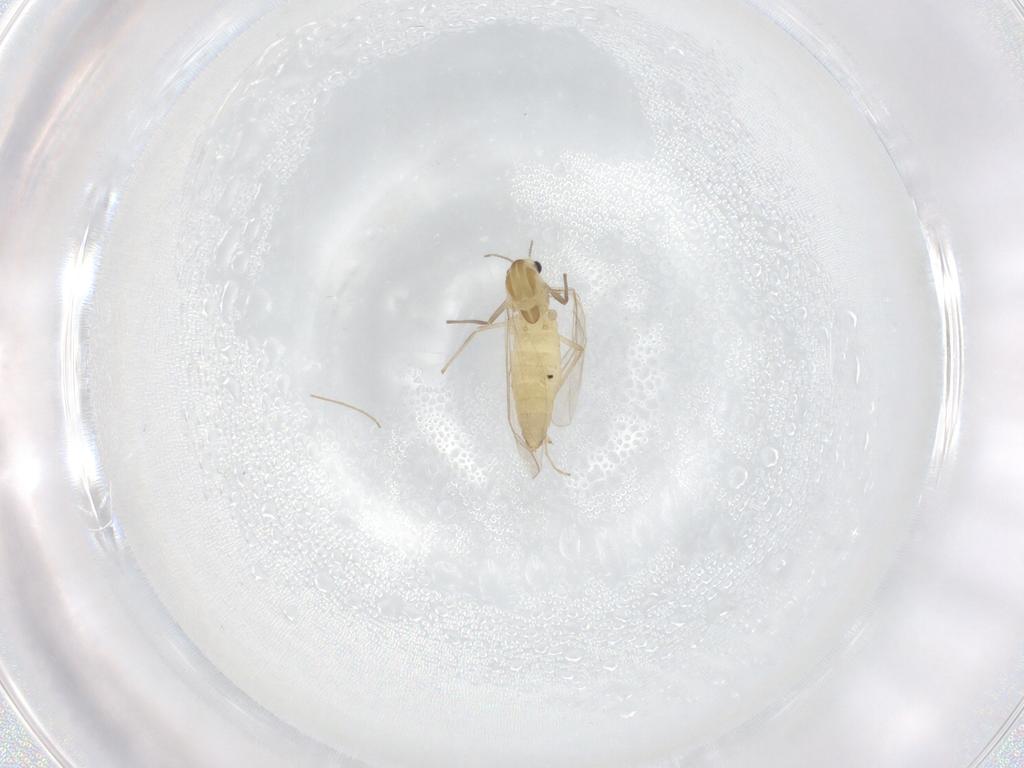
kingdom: Animalia
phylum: Arthropoda
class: Insecta
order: Diptera
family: Chironomidae
